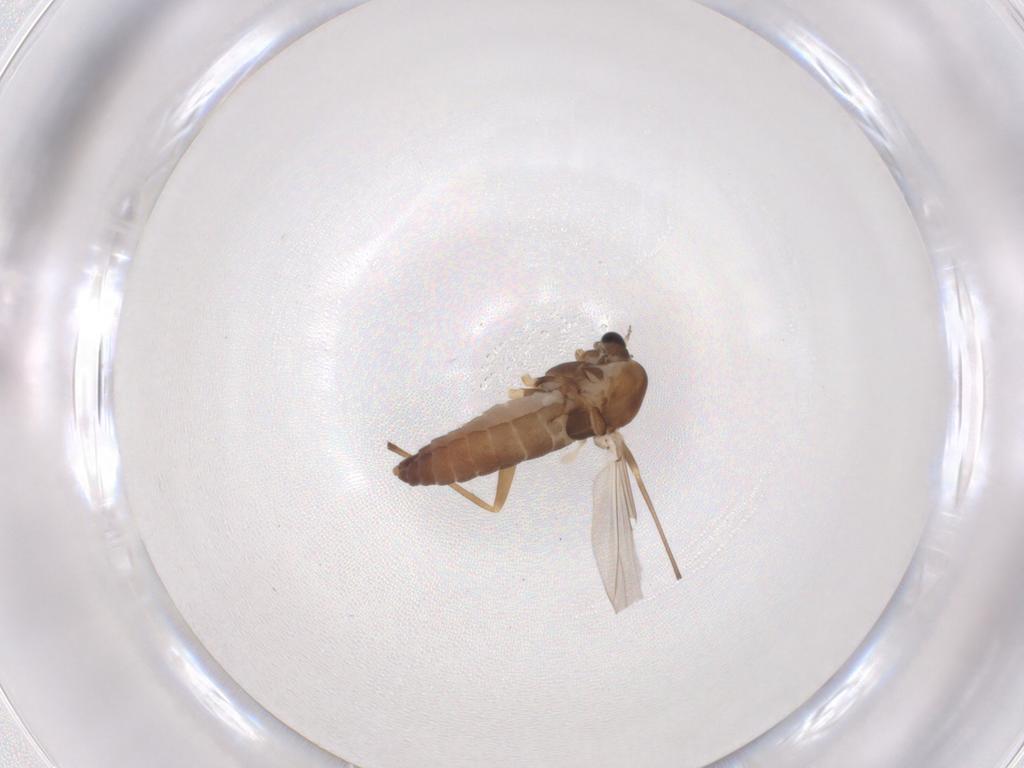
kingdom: Animalia
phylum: Arthropoda
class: Insecta
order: Diptera
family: Chironomidae
